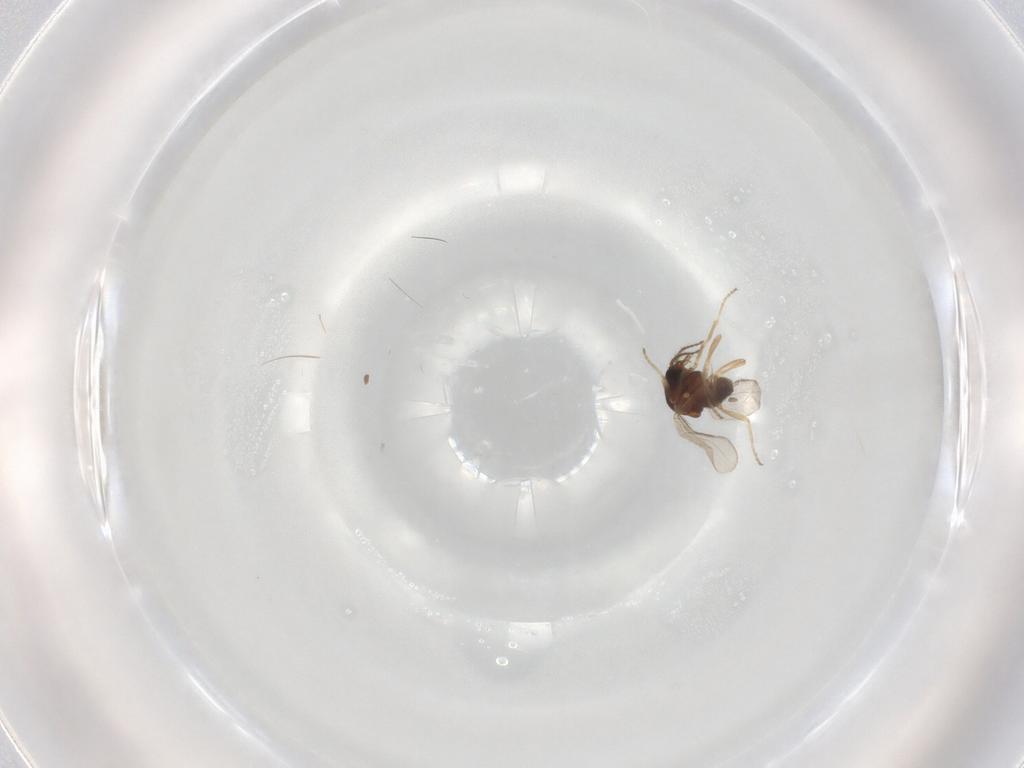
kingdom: Animalia
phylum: Arthropoda
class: Insecta
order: Diptera
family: Ceratopogonidae
